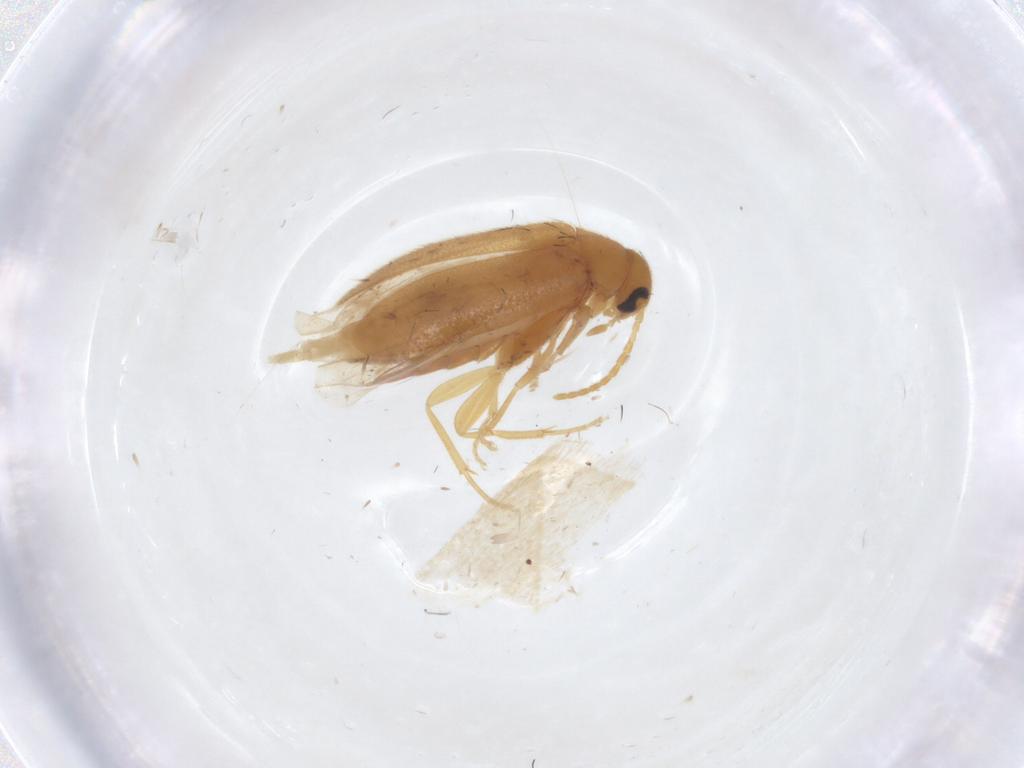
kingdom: Animalia
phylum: Arthropoda
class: Insecta
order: Coleoptera
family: Scraptiidae
